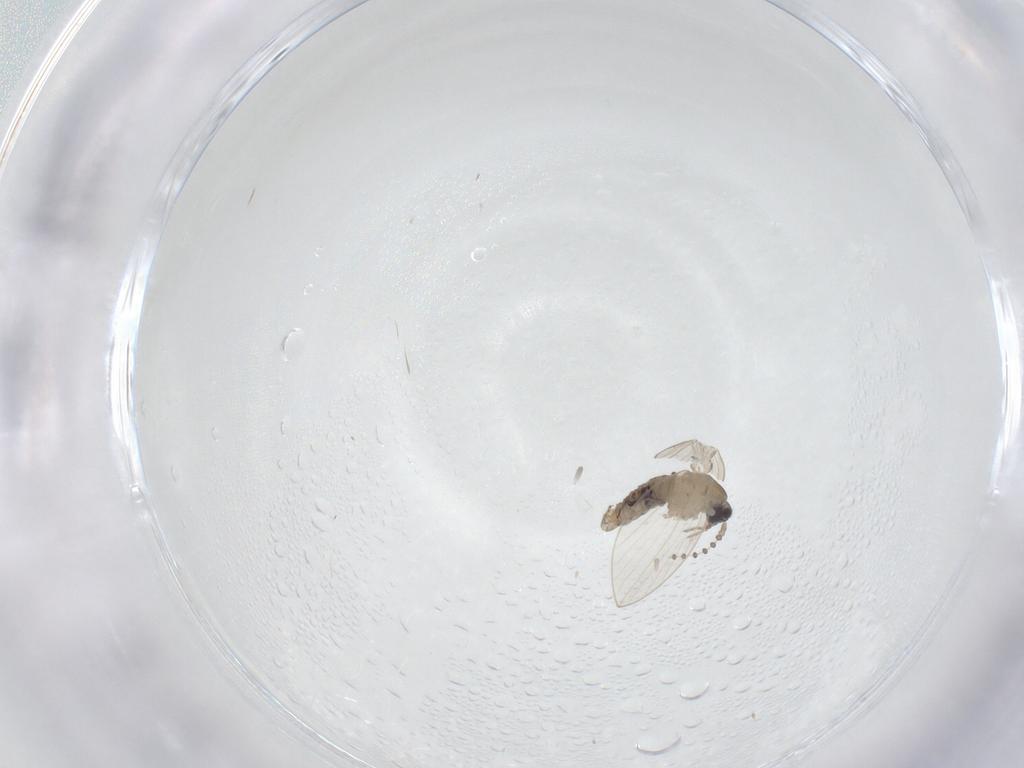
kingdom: Animalia
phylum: Arthropoda
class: Insecta
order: Diptera
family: Psychodidae
